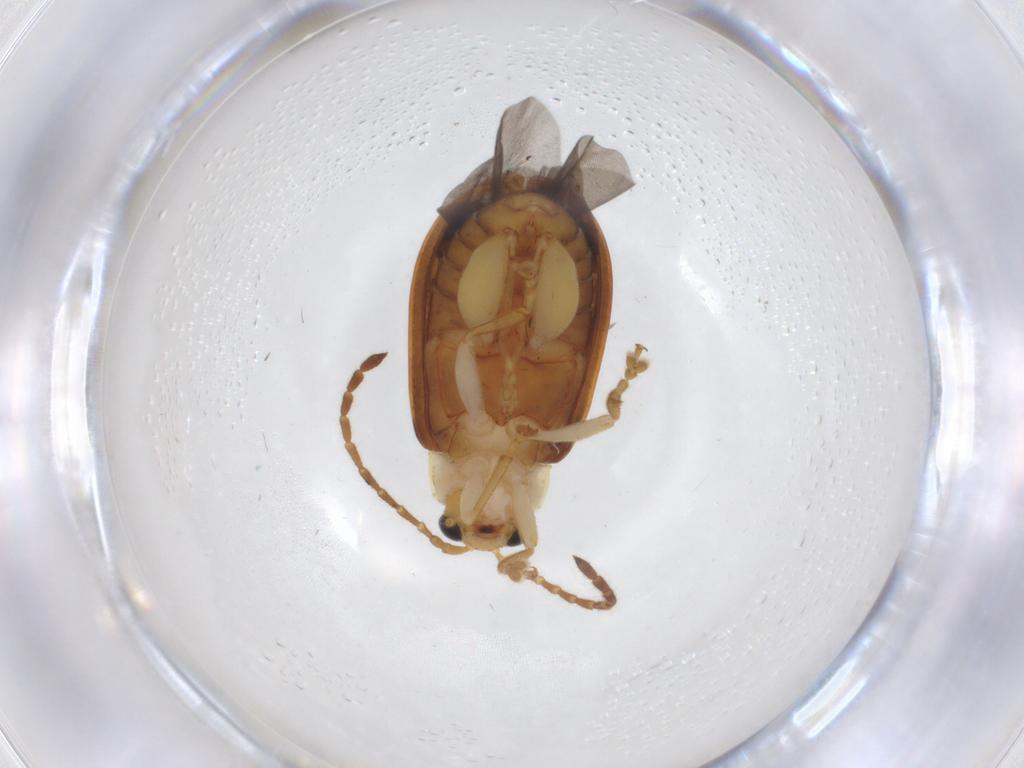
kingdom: Animalia
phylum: Arthropoda
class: Insecta
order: Coleoptera
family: Chrysomelidae
